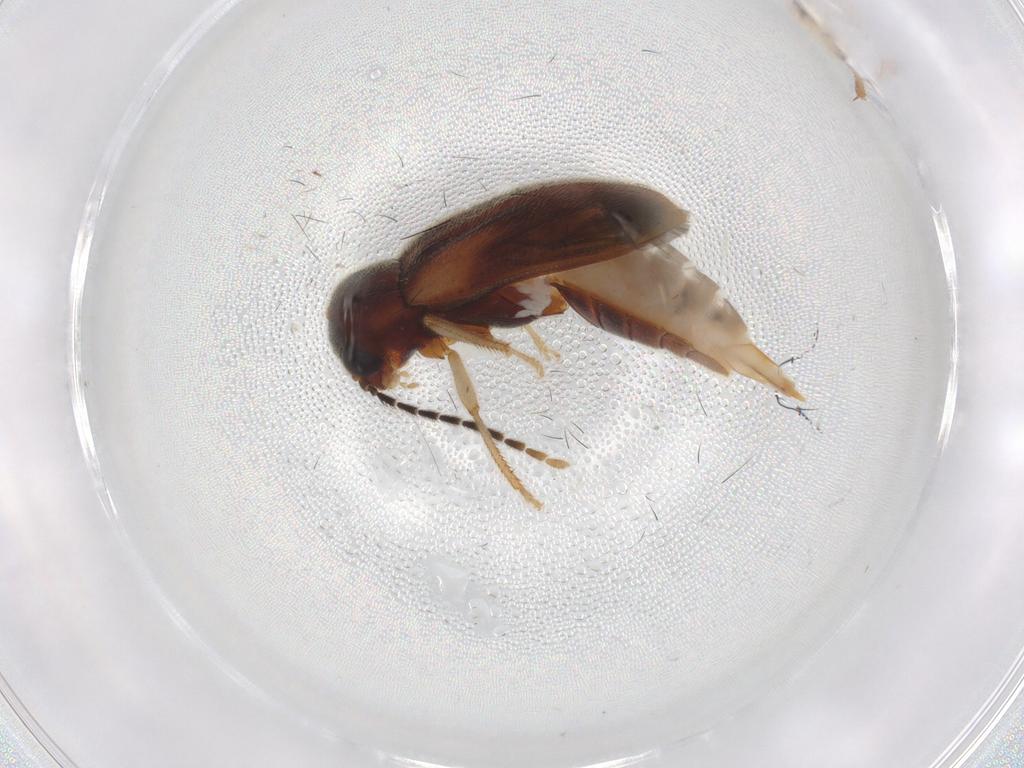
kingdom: Animalia
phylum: Arthropoda
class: Insecta
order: Coleoptera
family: Ptilodactylidae
